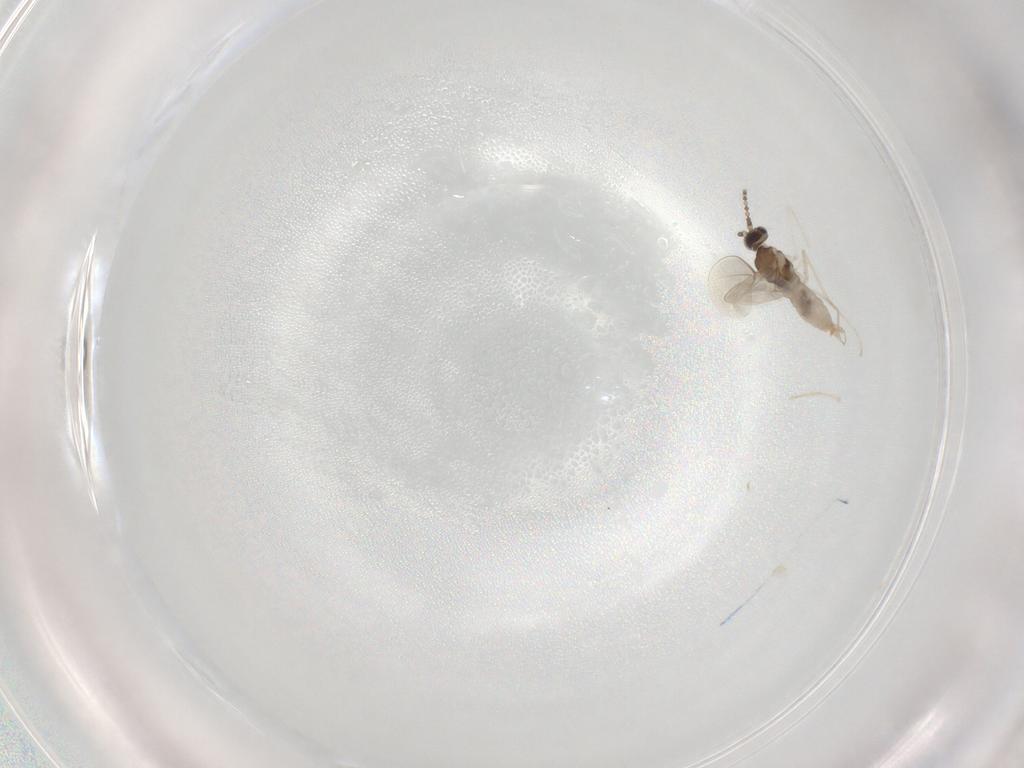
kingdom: Animalia
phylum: Arthropoda
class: Insecta
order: Diptera
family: Cecidomyiidae
